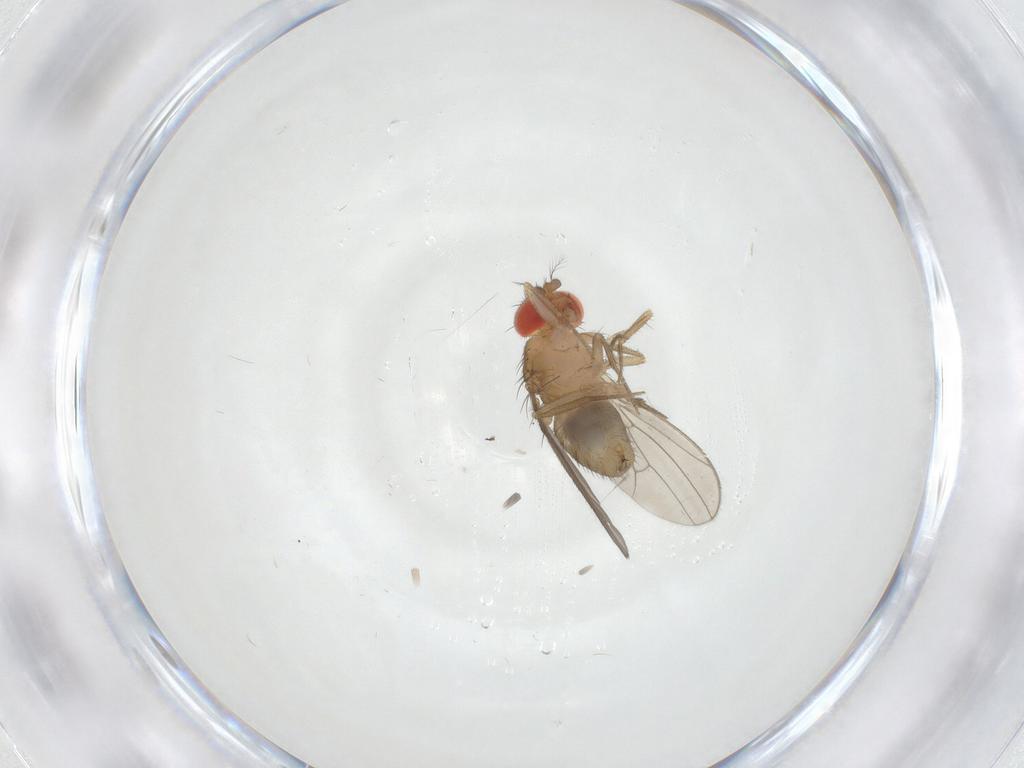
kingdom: Animalia
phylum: Arthropoda
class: Insecta
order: Diptera
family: Drosophilidae
